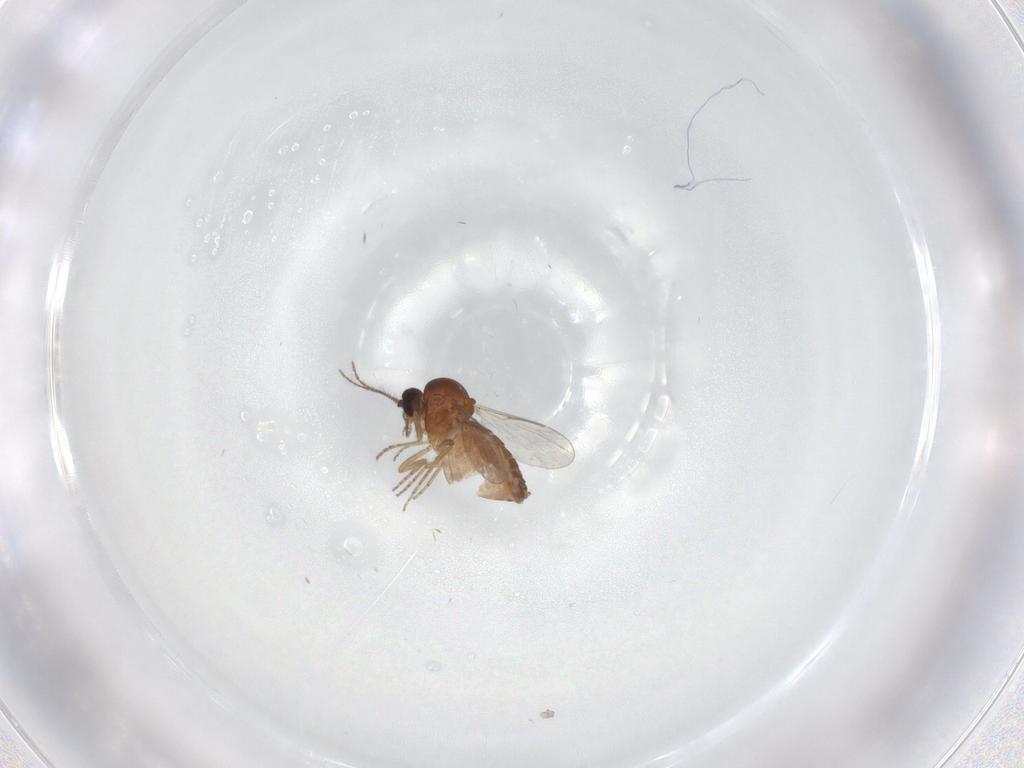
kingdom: Animalia
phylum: Arthropoda
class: Insecta
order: Diptera
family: Ceratopogonidae
